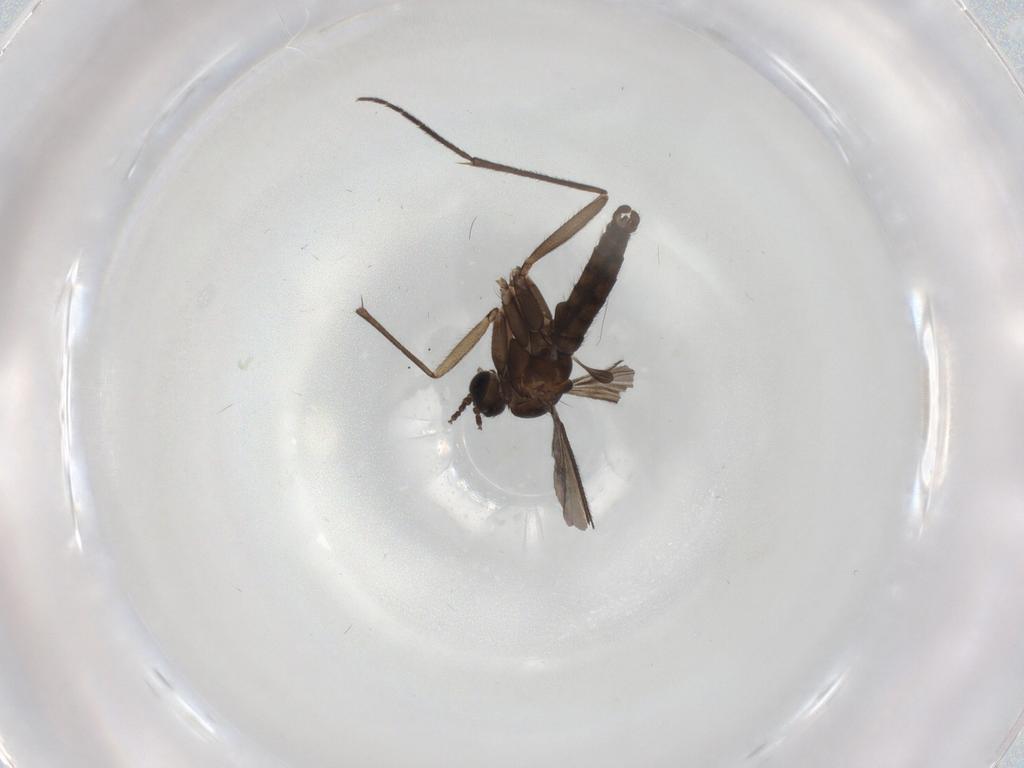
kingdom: Animalia
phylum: Arthropoda
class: Insecta
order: Diptera
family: Sciaridae
